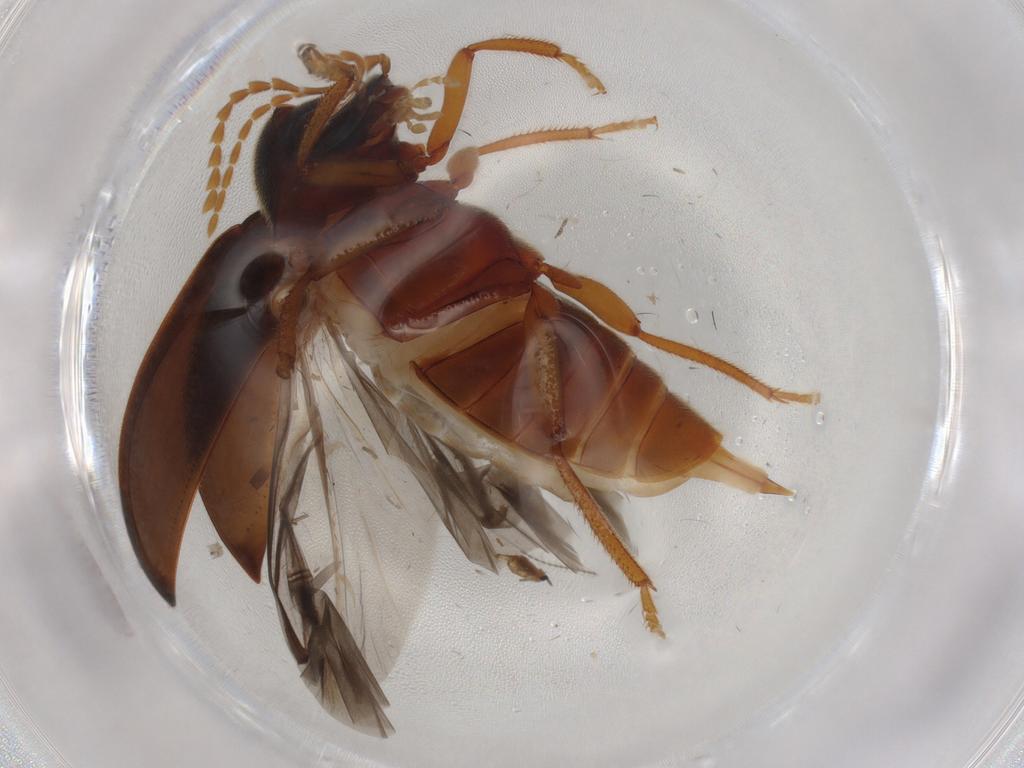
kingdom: Animalia
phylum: Arthropoda
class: Insecta
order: Coleoptera
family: Ptilodactylidae
